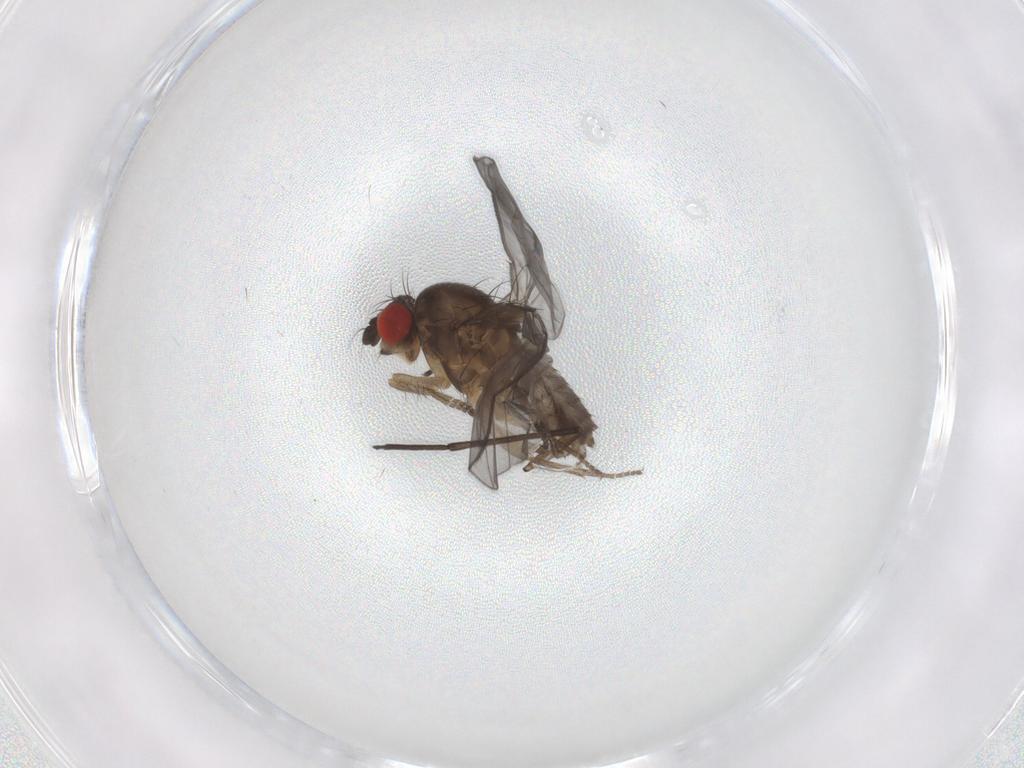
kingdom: Animalia
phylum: Arthropoda
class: Insecta
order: Diptera
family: Drosophilidae
